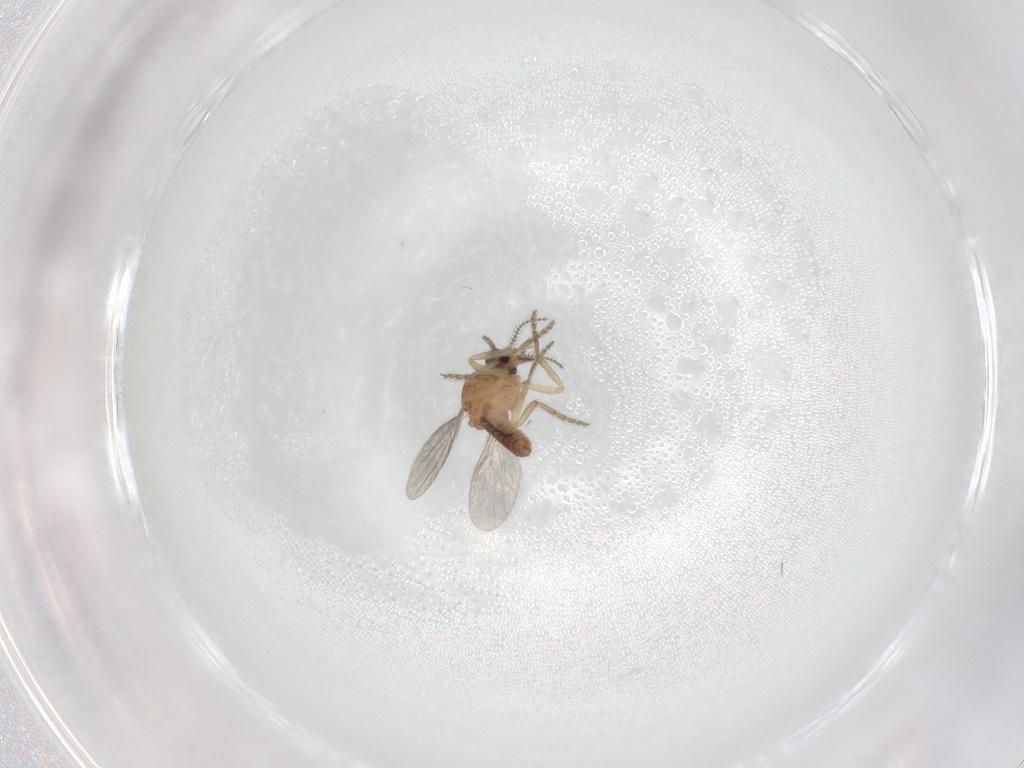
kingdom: Animalia
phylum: Arthropoda
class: Insecta
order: Diptera
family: Ceratopogonidae
